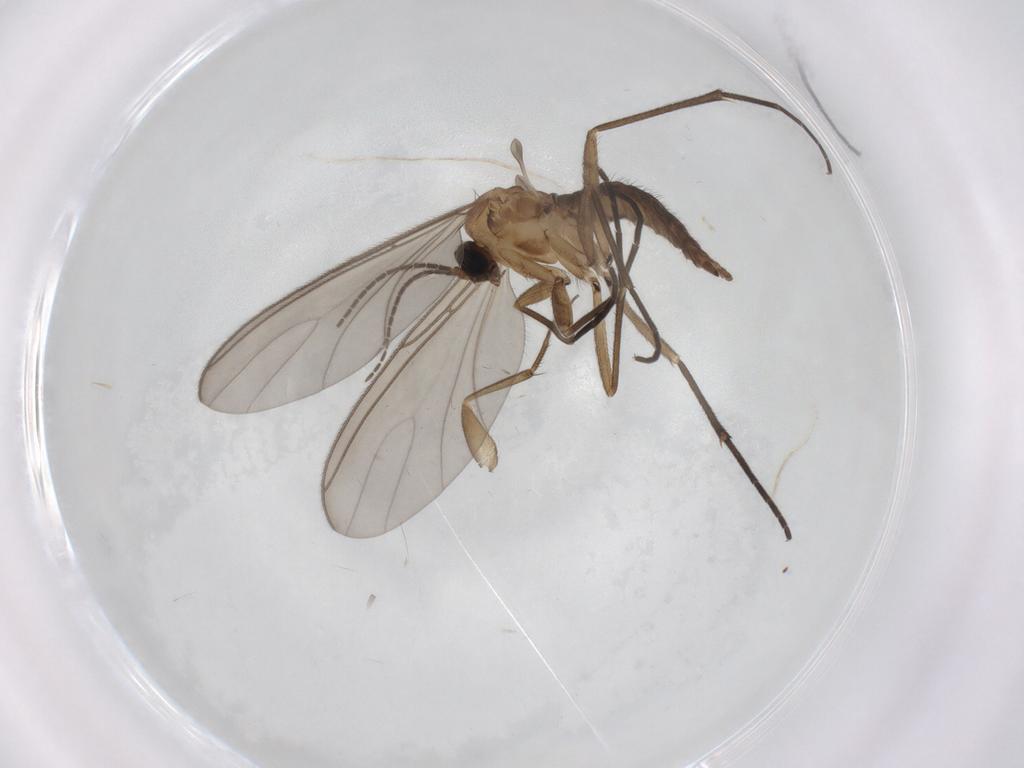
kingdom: Animalia
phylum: Arthropoda
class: Insecta
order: Diptera
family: Sciaridae
